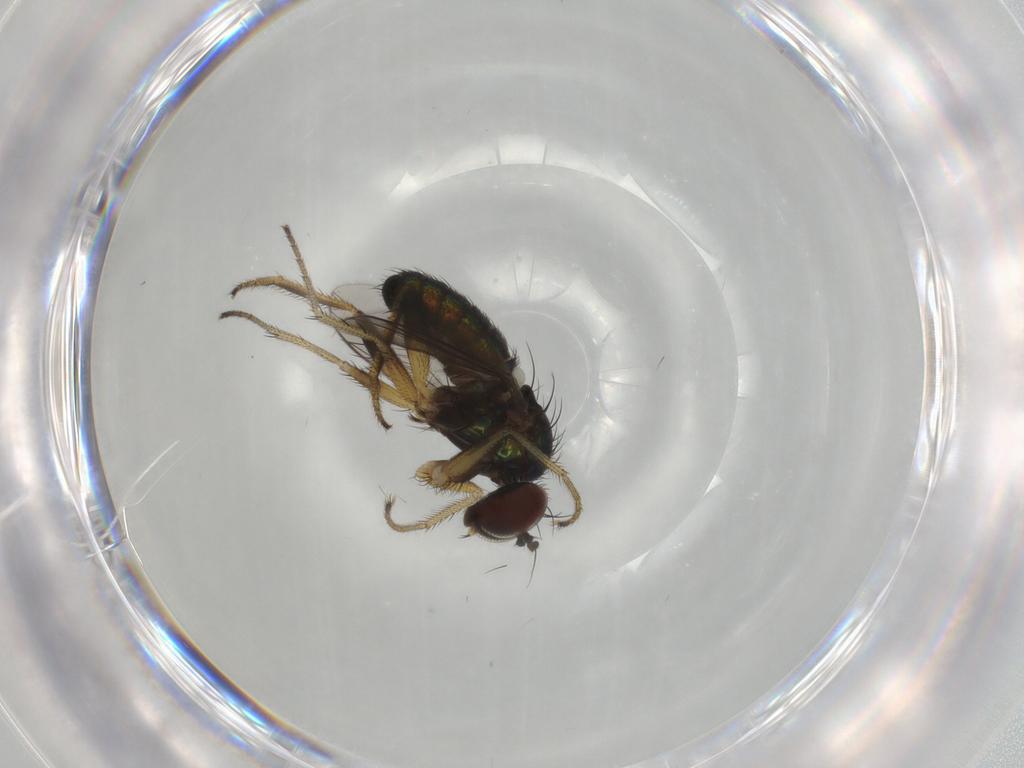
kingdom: Animalia
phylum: Arthropoda
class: Insecta
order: Diptera
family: Dolichopodidae
